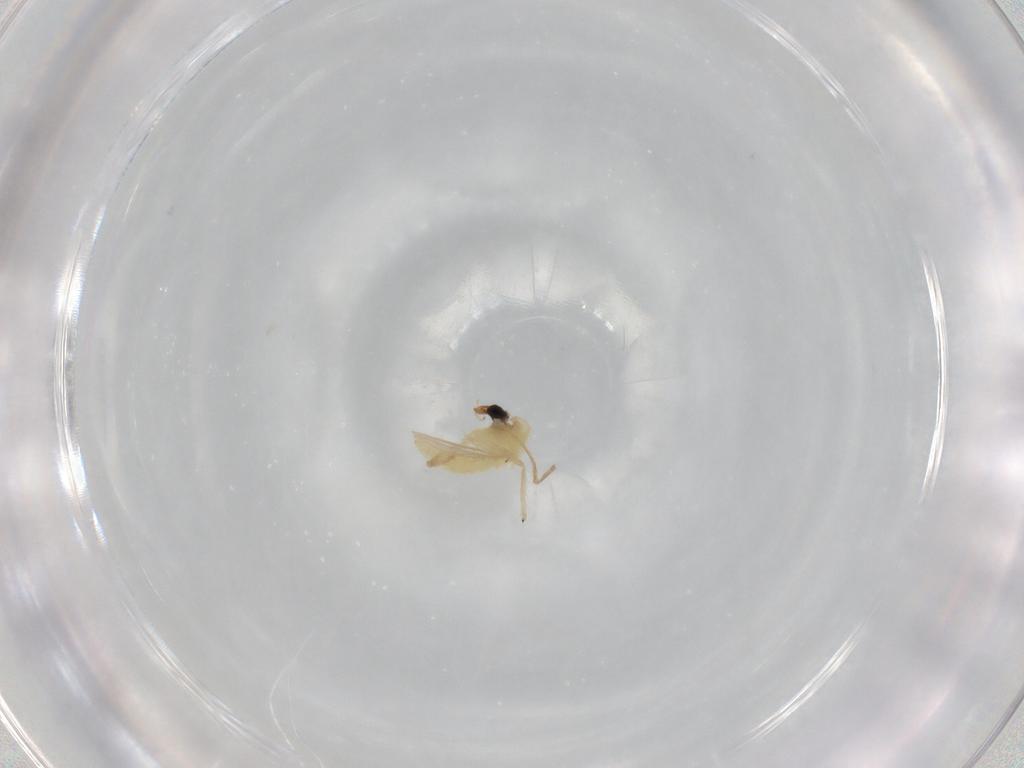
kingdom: Animalia
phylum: Arthropoda
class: Insecta
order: Diptera
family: Chironomidae
